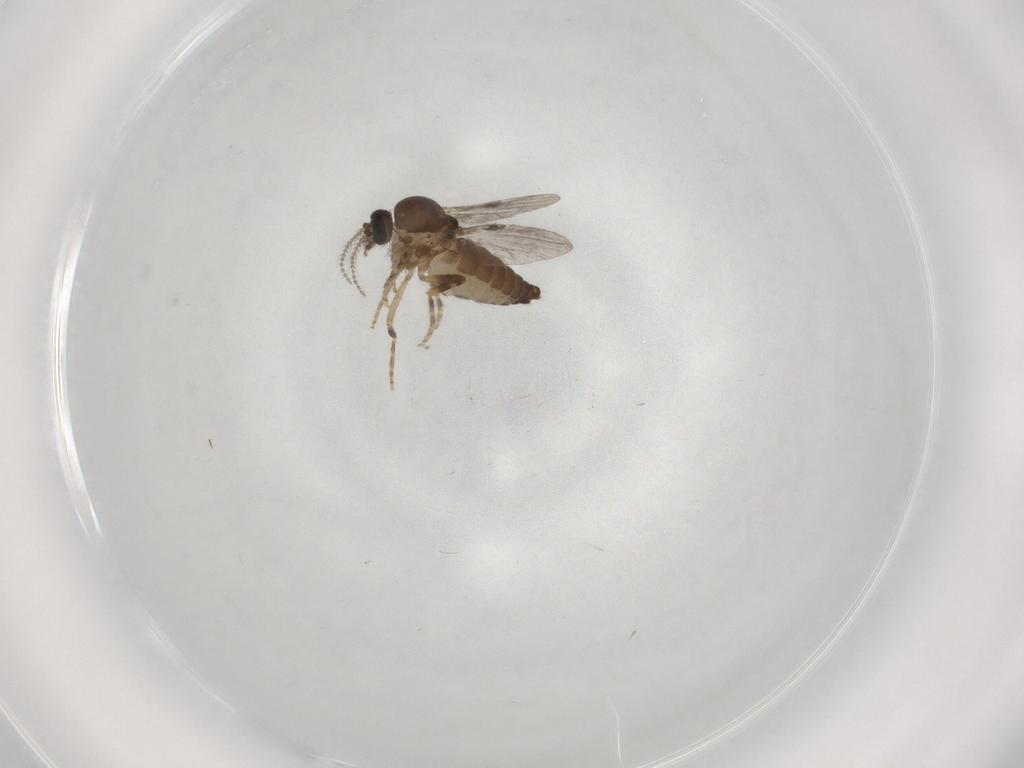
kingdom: Animalia
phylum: Arthropoda
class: Insecta
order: Diptera
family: Ceratopogonidae
